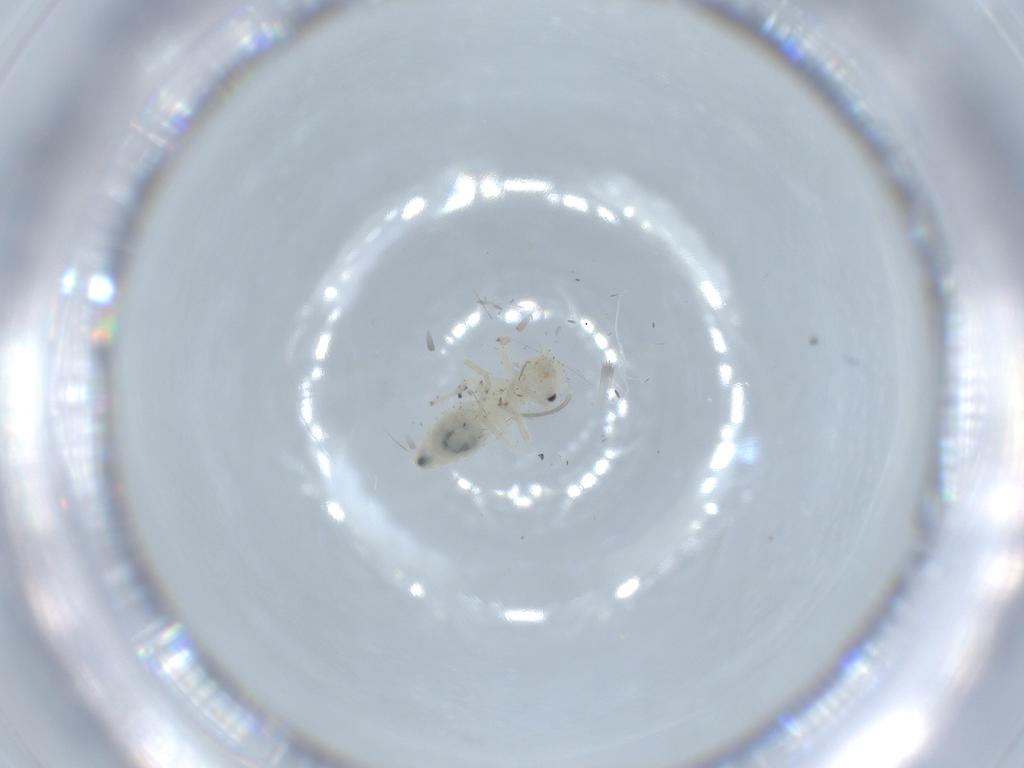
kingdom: Animalia
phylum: Arthropoda
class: Insecta
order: Psocodea
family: Caeciliusidae
